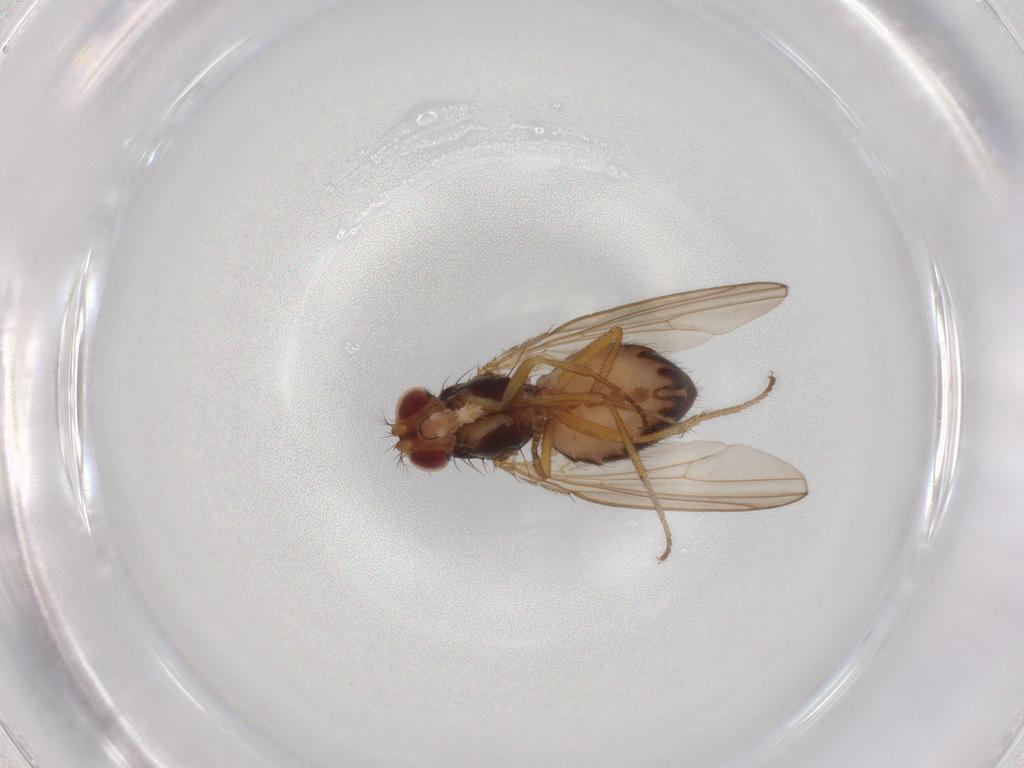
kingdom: Animalia
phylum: Arthropoda
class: Insecta
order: Diptera
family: Drosophilidae
